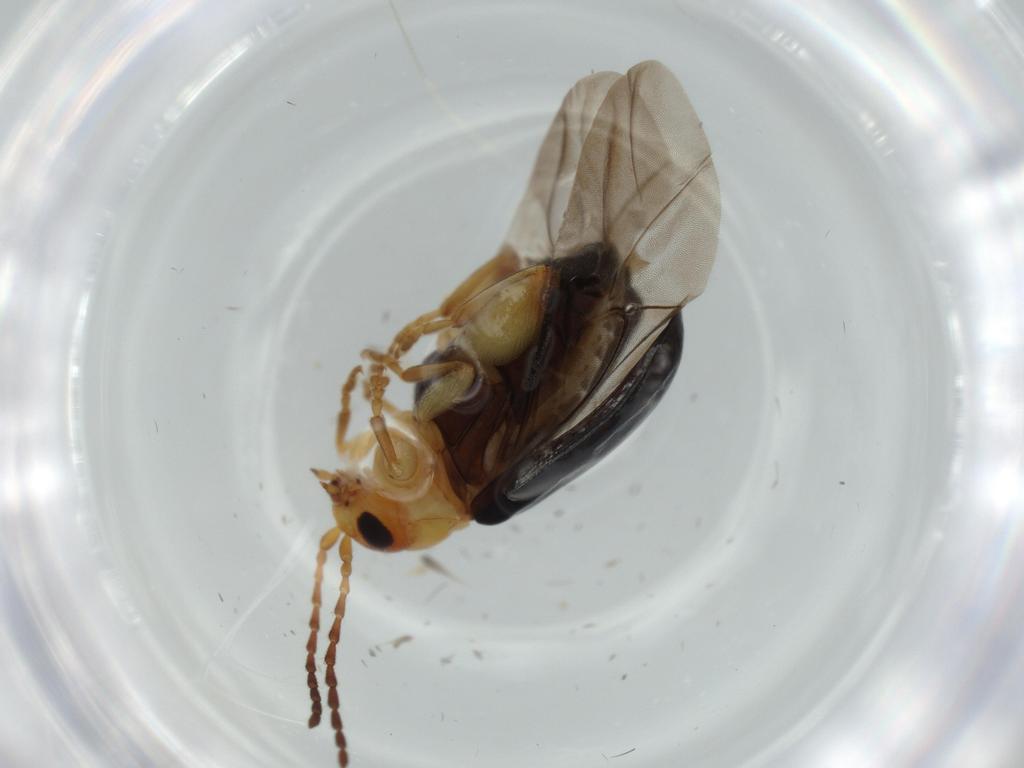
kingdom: Animalia
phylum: Arthropoda
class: Insecta
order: Coleoptera
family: Chrysomelidae
